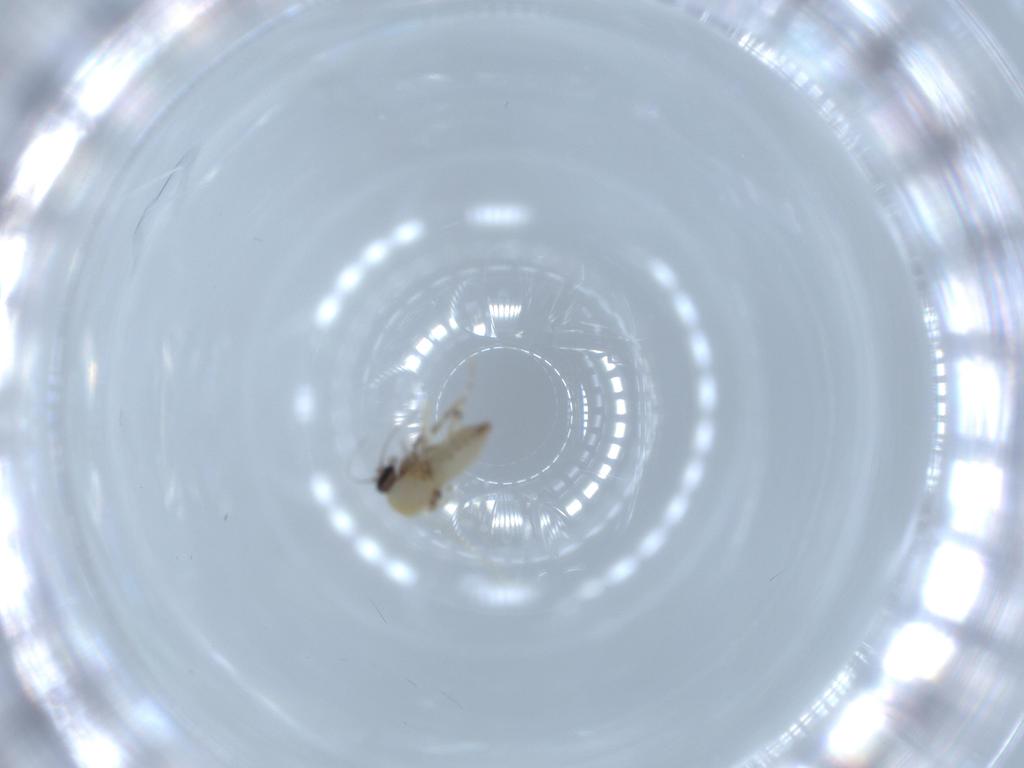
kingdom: Animalia
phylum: Arthropoda
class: Insecta
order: Diptera
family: Ceratopogonidae
